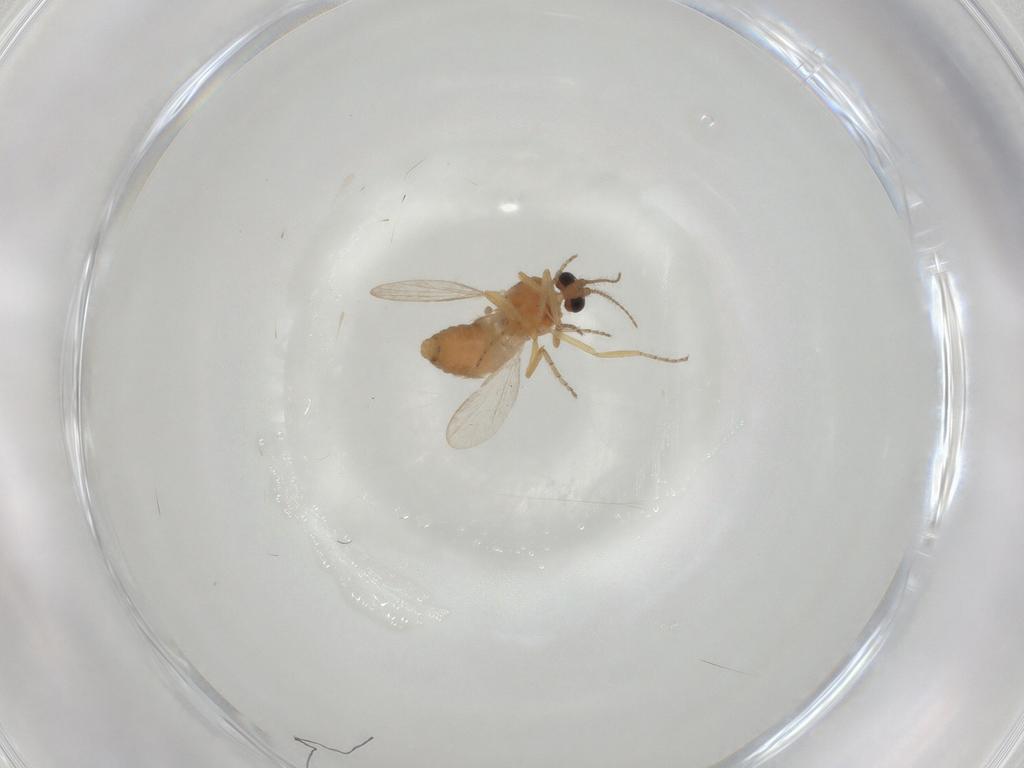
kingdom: Animalia
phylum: Arthropoda
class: Insecta
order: Diptera
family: Ceratopogonidae
